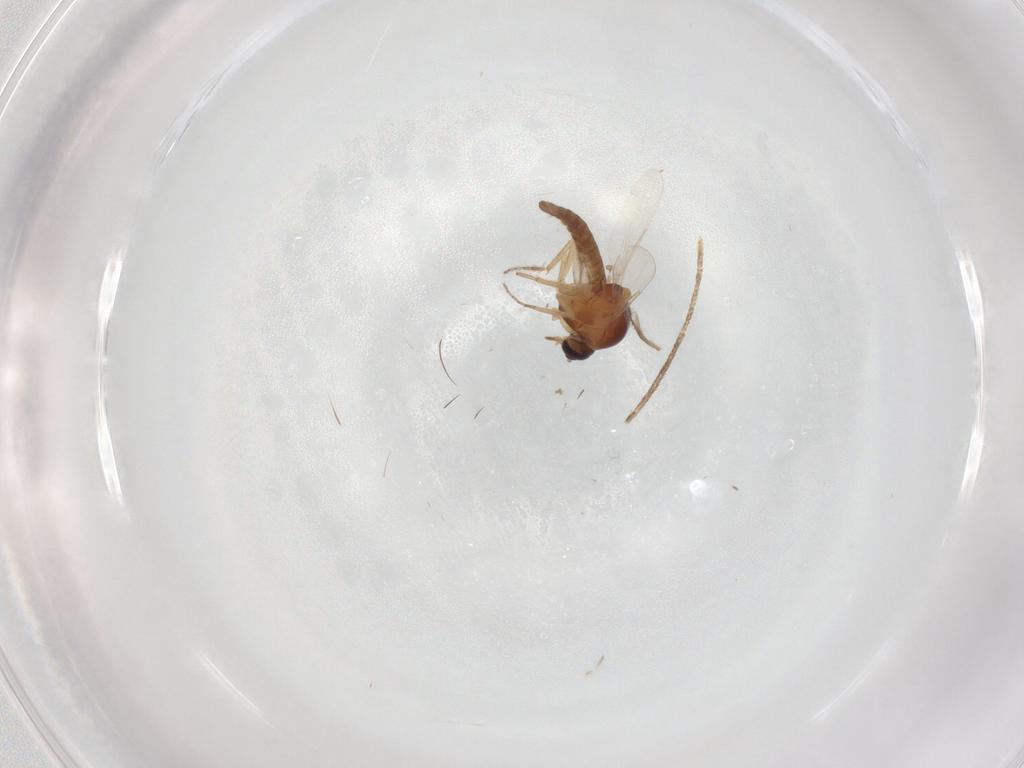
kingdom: Animalia
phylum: Arthropoda
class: Insecta
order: Diptera
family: Ceratopogonidae
